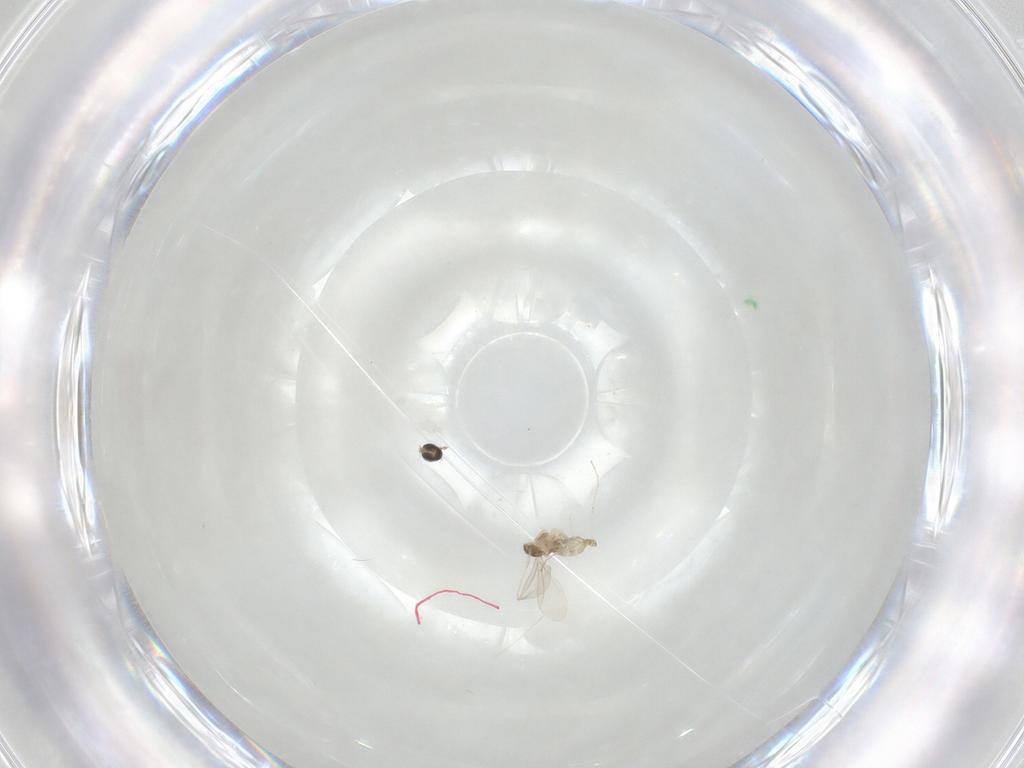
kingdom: Animalia
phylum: Arthropoda
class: Insecta
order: Diptera
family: Cecidomyiidae
